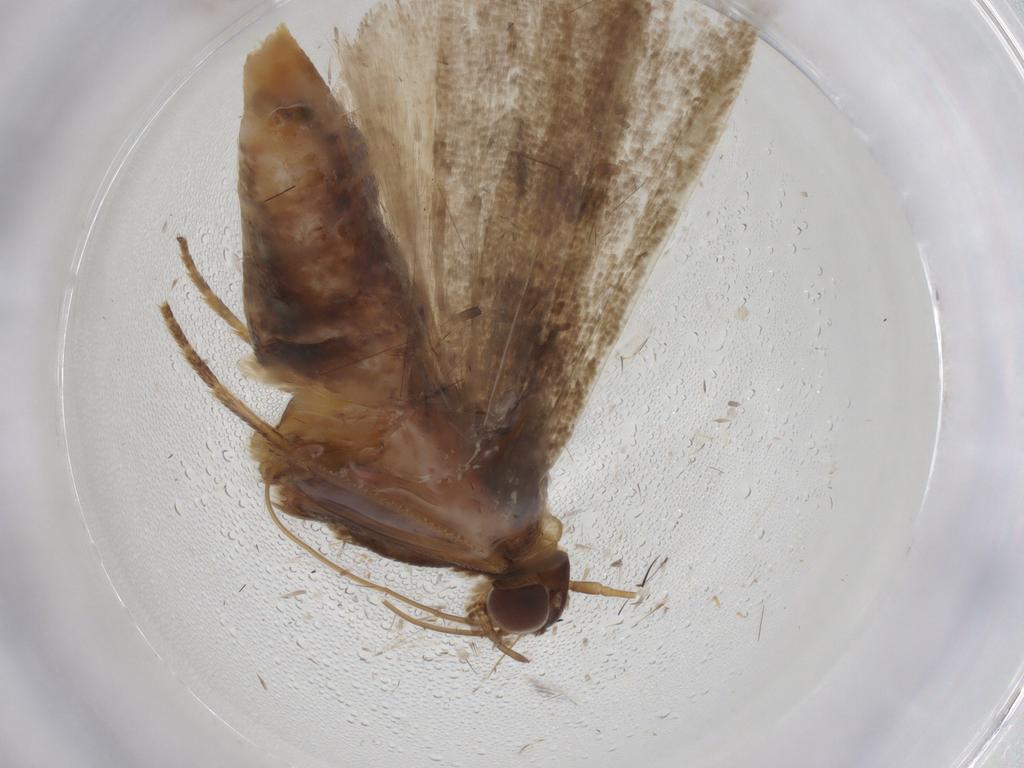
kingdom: Animalia
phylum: Arthropoda
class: Insecta
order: Lepidoptera
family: Pyralidae
